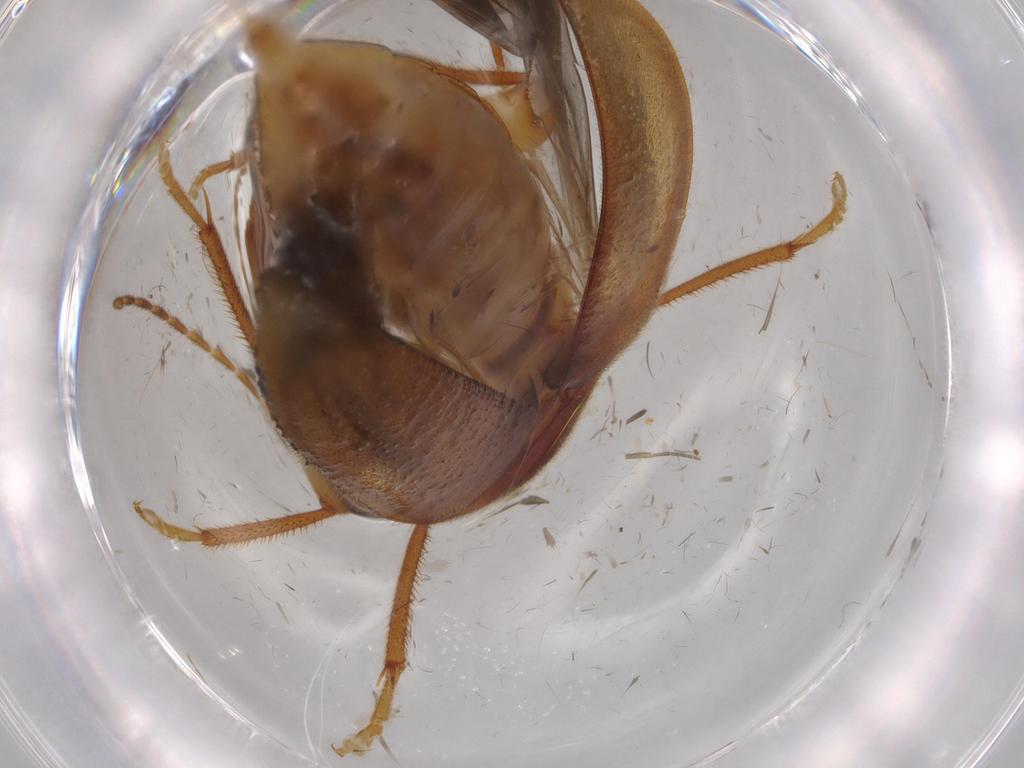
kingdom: Animalia
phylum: Arthropoda
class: Insecta
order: Coleoptera
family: Ptilodactylidae
